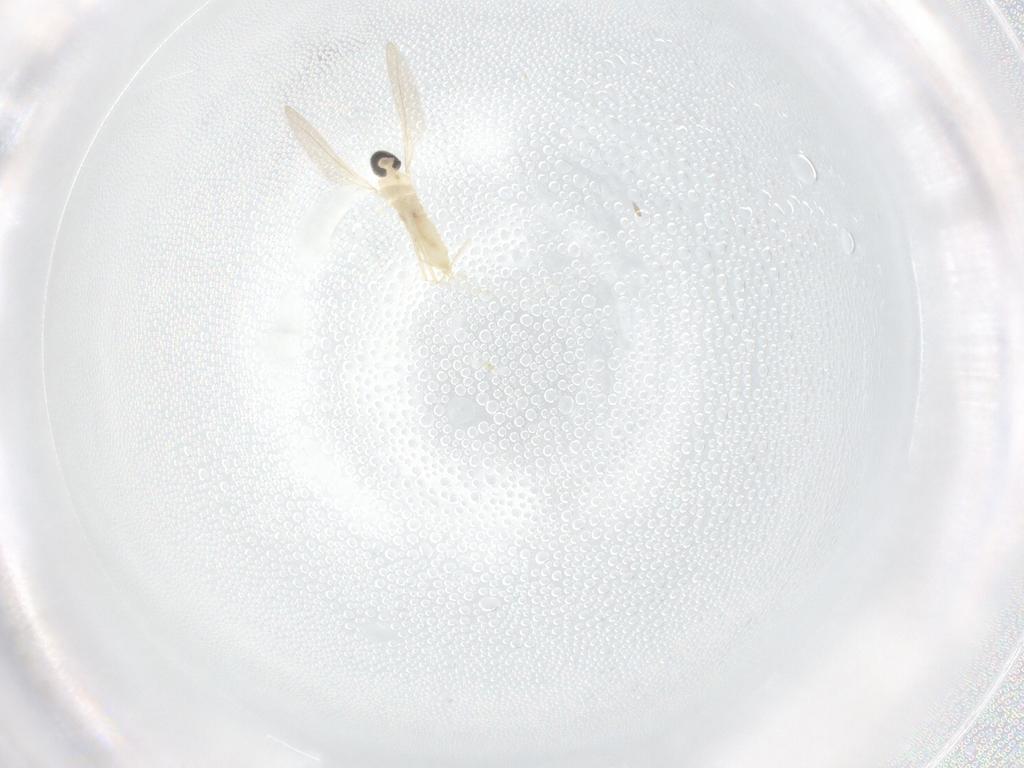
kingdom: Animalia
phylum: Arthropoda
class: Insecta
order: Diptera
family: Cecidomyiidae
